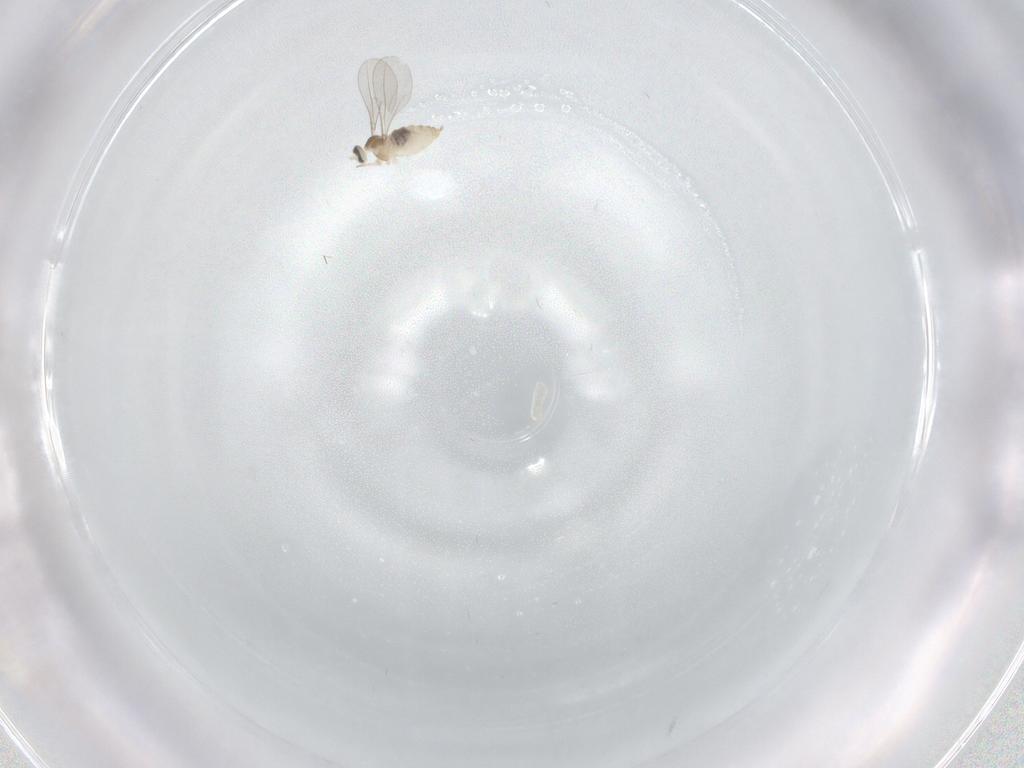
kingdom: Animalia
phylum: Arthropoda
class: Insecta
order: Diptera
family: Cecidomyiidae
